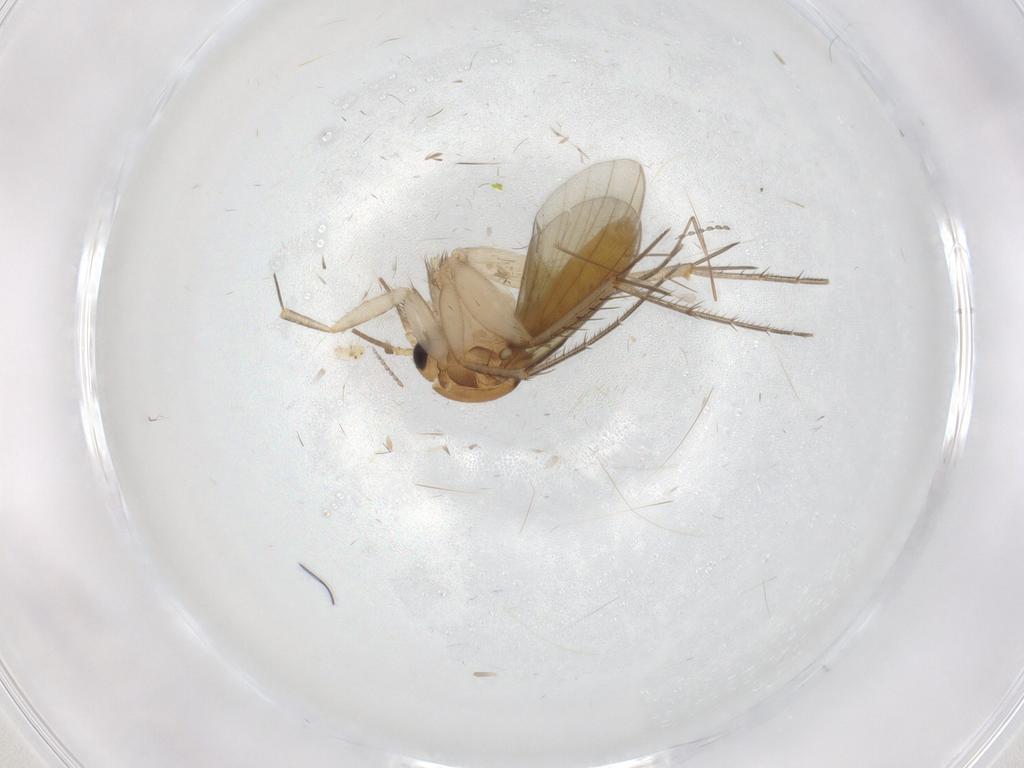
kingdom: Animalia
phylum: Arthropoda
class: Insecta
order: Diptera
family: Mycetophilidae
